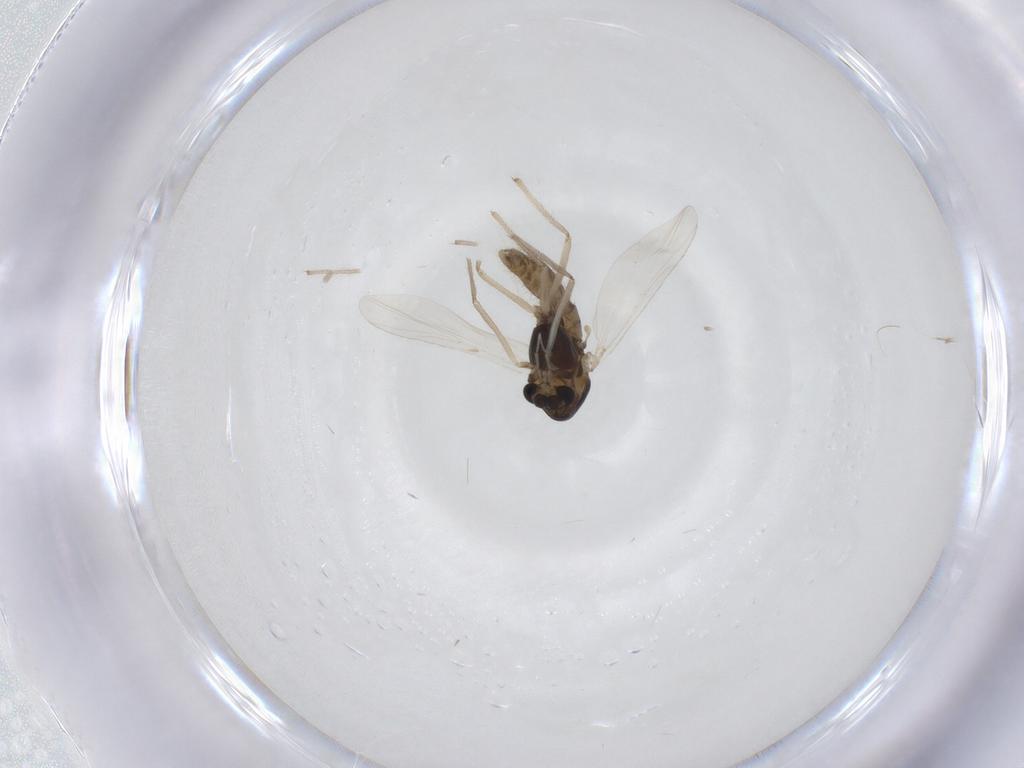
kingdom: Animalia
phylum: Arthropoda
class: Insecta
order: Diptera
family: Chironomidae
